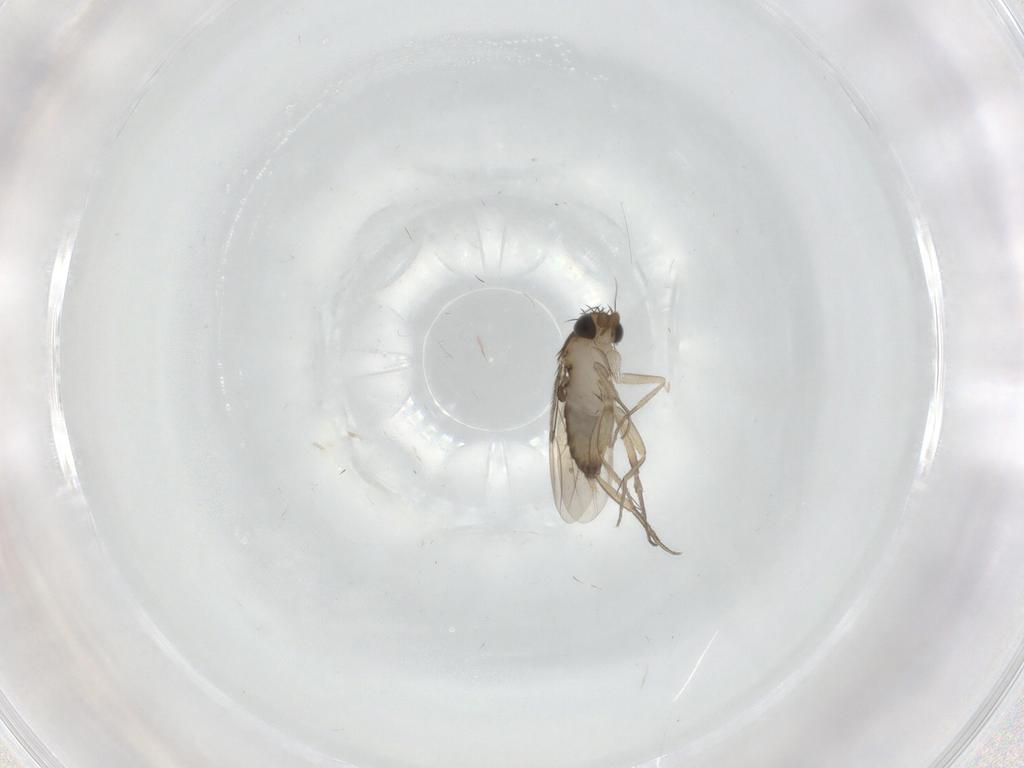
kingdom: Animalia
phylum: Arthropoda
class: Insecta
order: Diptera
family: Phoridae
